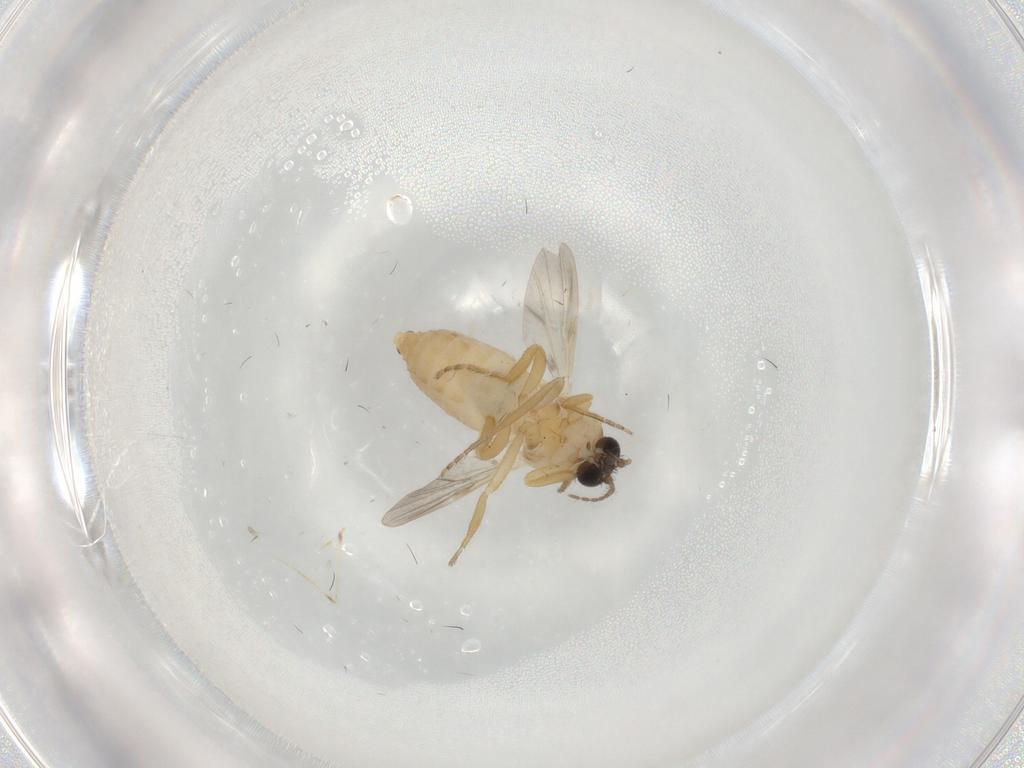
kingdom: Animalia
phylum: Arthropoda
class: Insecta
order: Diptera
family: Ceratopogonidae
